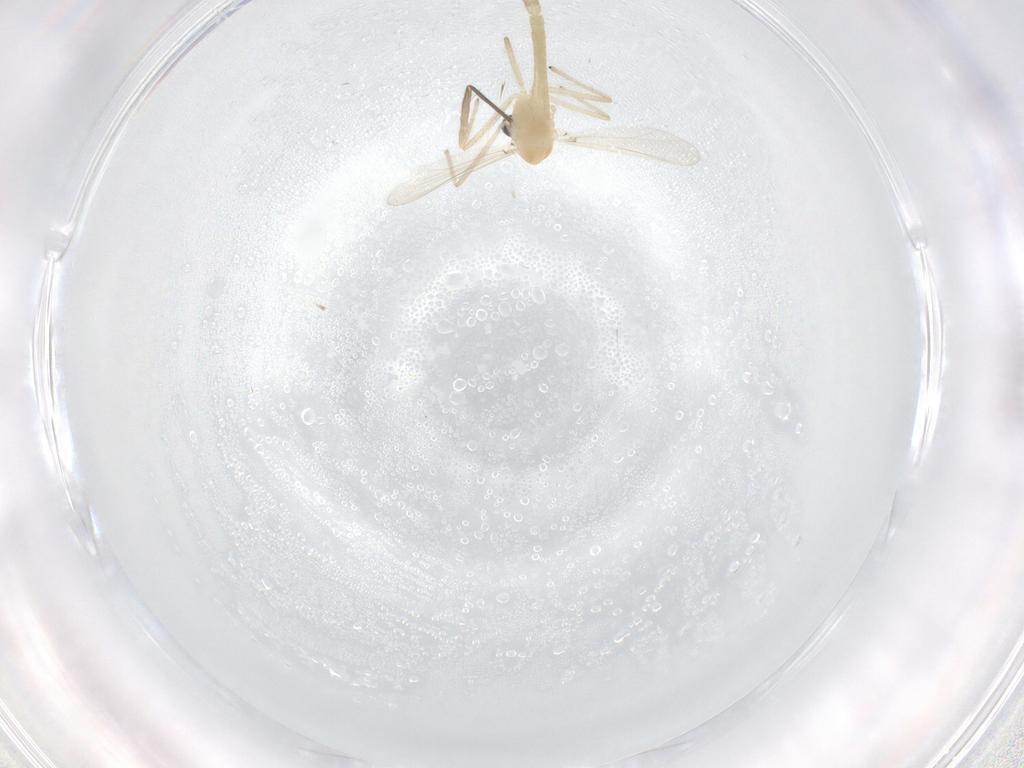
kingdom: Animalia
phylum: Arthropoda
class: Insecta
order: Diptera
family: Chironomidae
